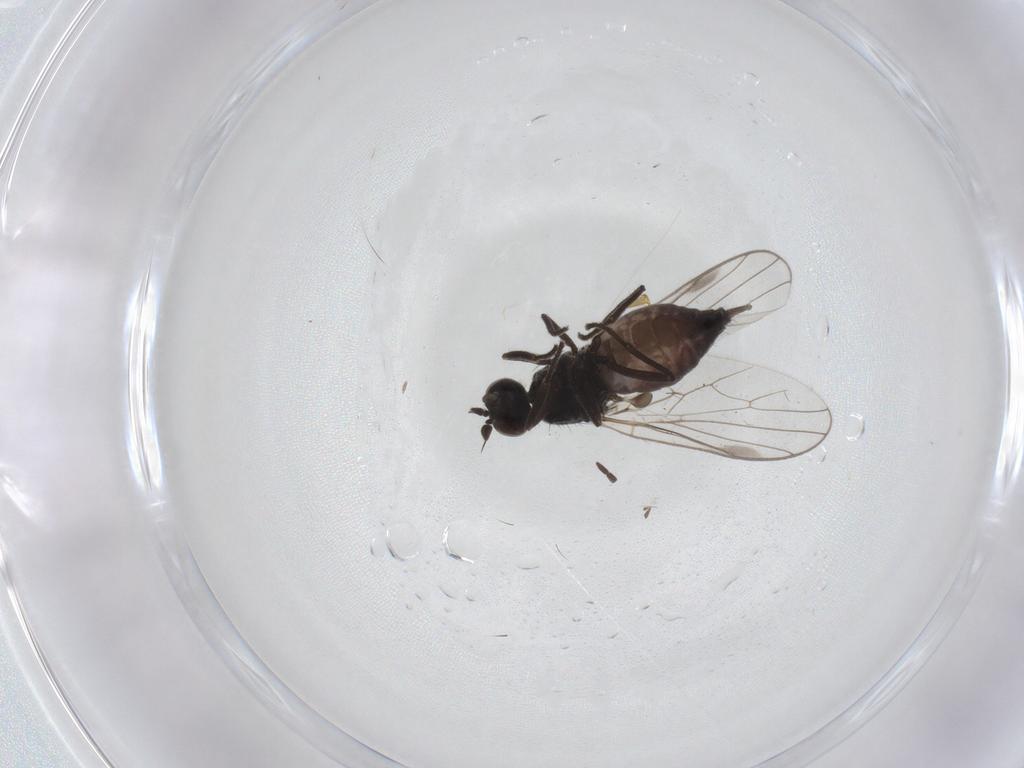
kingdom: Animalia
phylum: Arthropoda
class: Insecta
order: Diptera
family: Hybotidae
